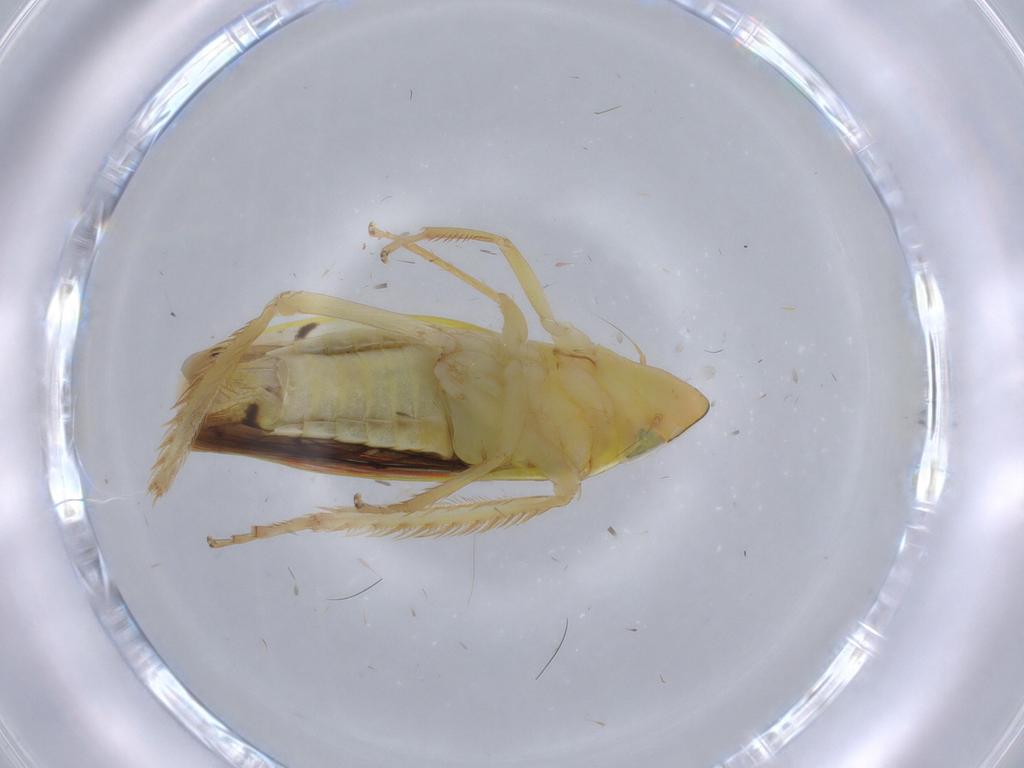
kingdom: Animalia
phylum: Arthropoda
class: Insecta
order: Hemiptera
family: Cicadellidae
